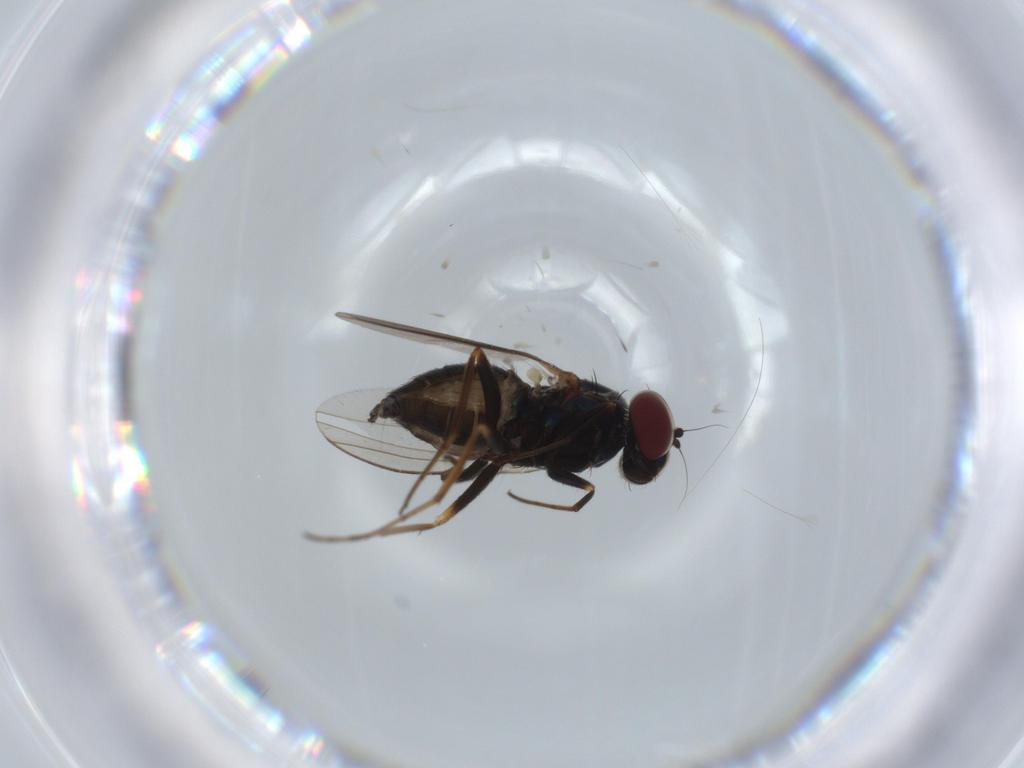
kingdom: Animalia
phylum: Arthropoda
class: Insecta
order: Diptera
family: Dolichopodidae
